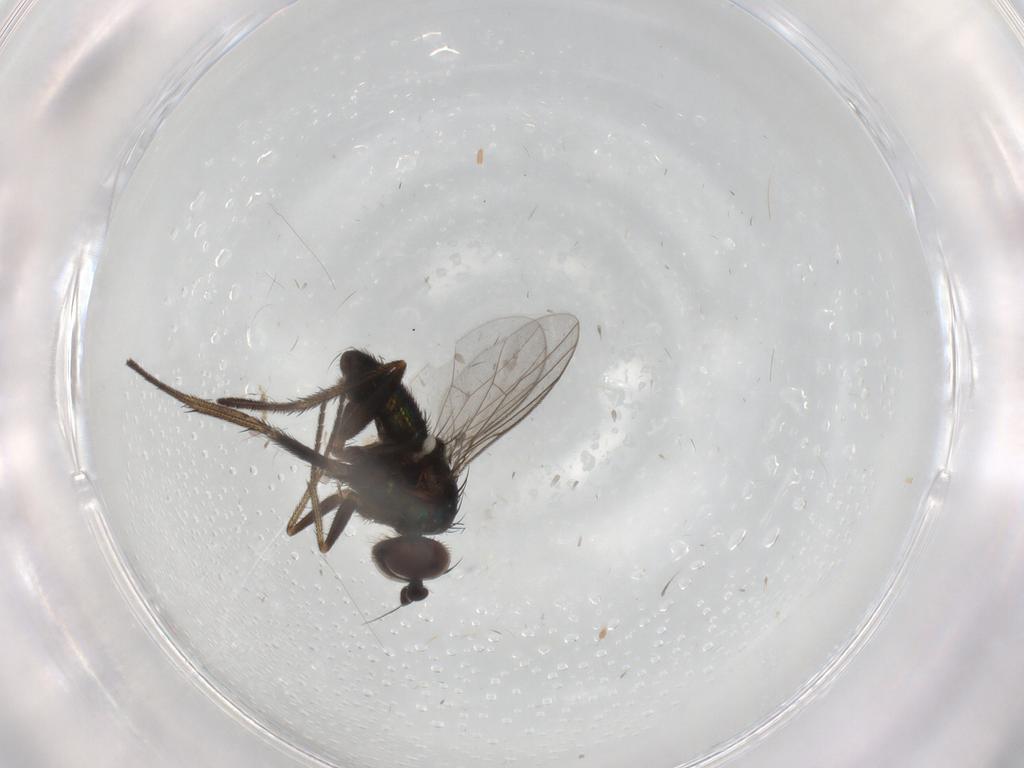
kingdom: Animalia
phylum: Arthropoda
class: Insecta
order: Diptera
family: Dolichopodidae
